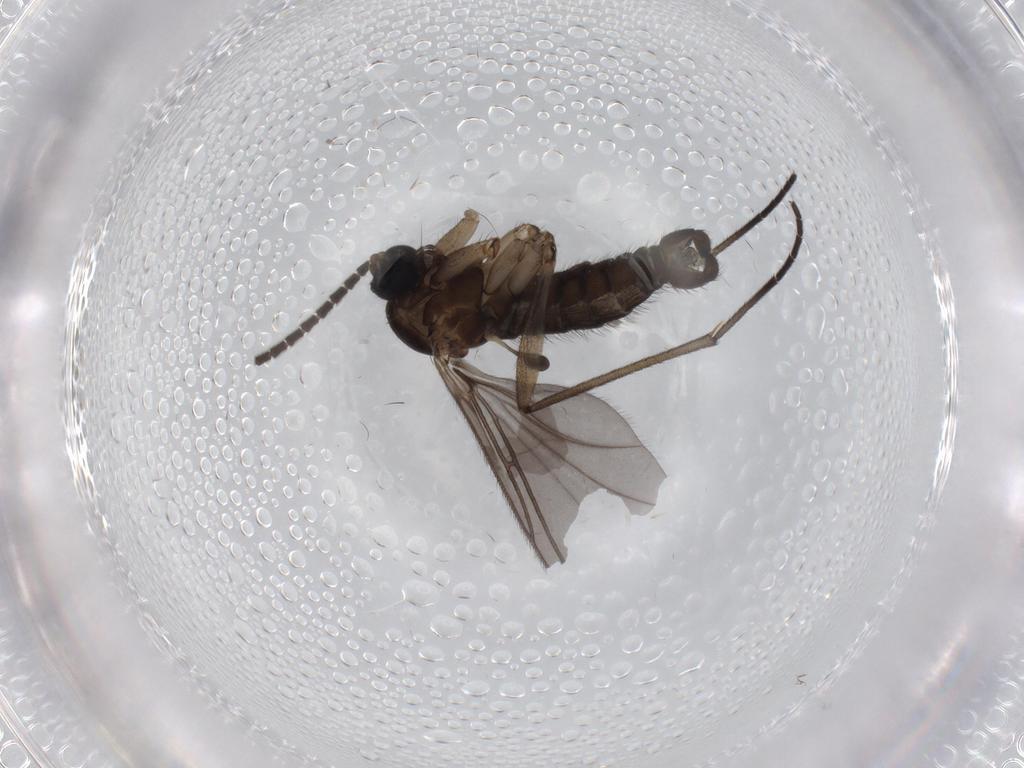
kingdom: Animalia
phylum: Arthropoda
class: Insecta
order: Diptera
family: Sciaridae
